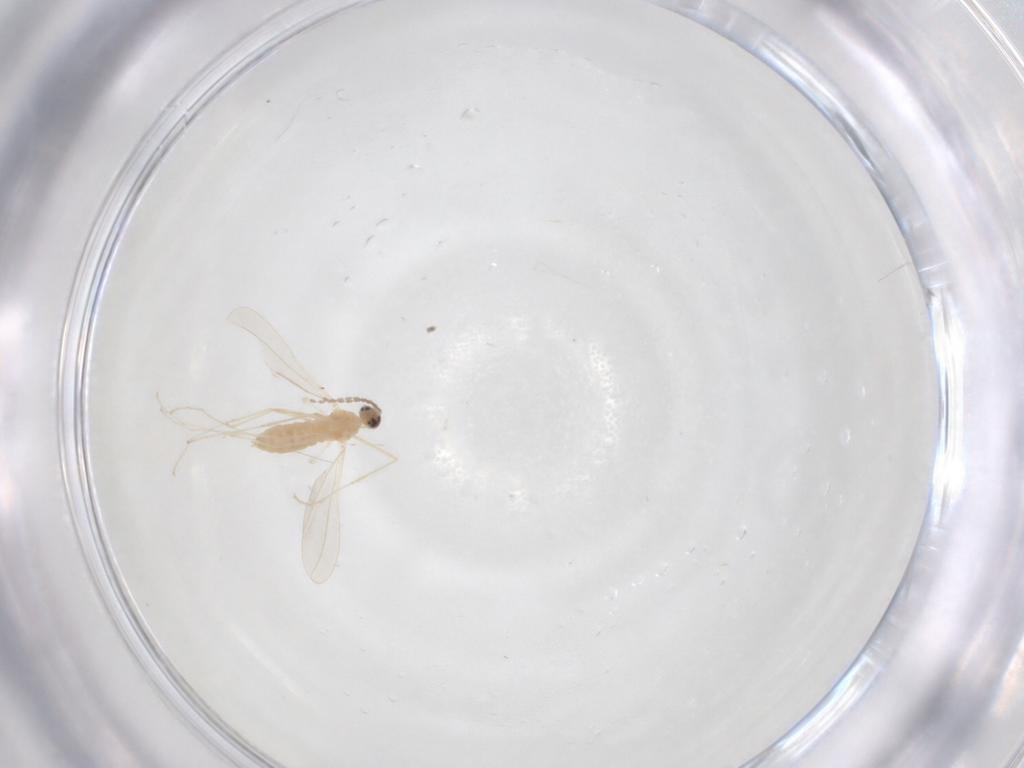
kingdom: Animalia
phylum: Arthropoda
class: Insecta
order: Diptera
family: Cecidomyiidae
